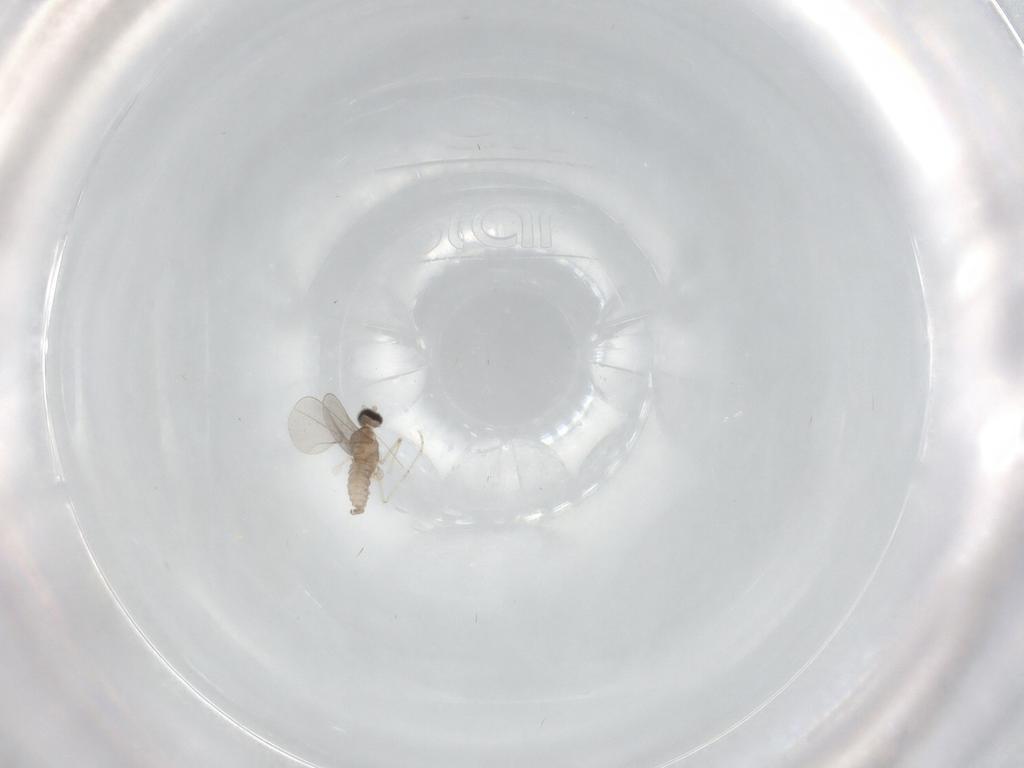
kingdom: Animalia
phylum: Arthropoda
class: Insecta
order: Diptera
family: Cecidomyiidae
